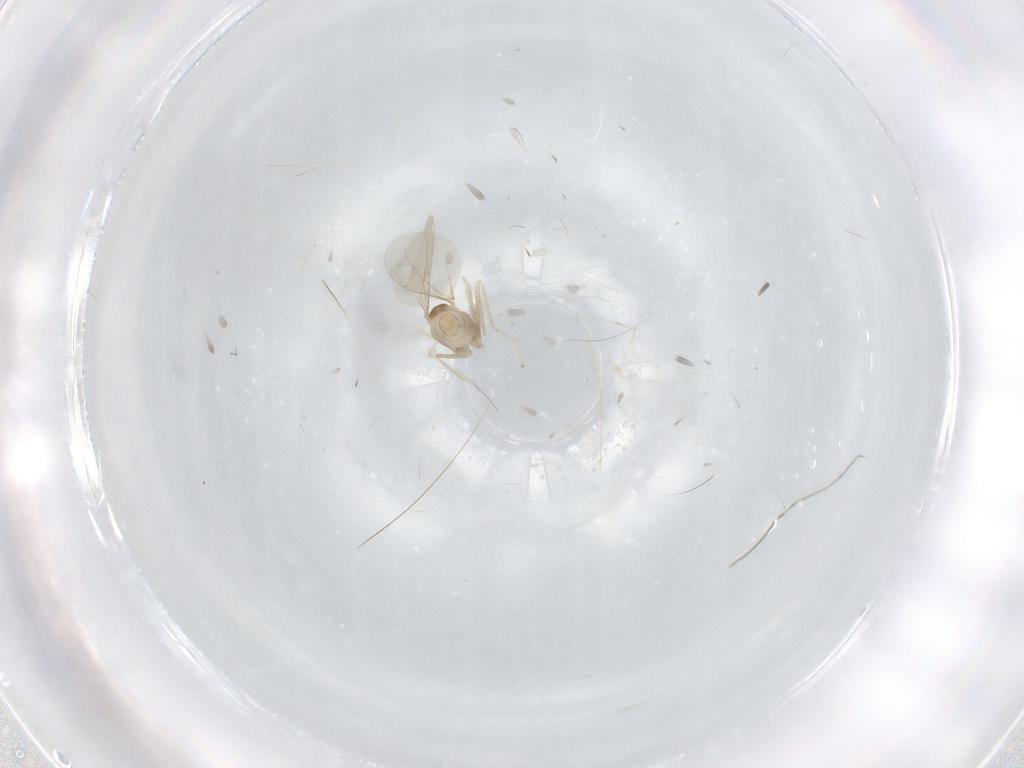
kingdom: Animalia
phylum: Arthropoda
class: Insecta
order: Diptera
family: Cecidomyiidae
